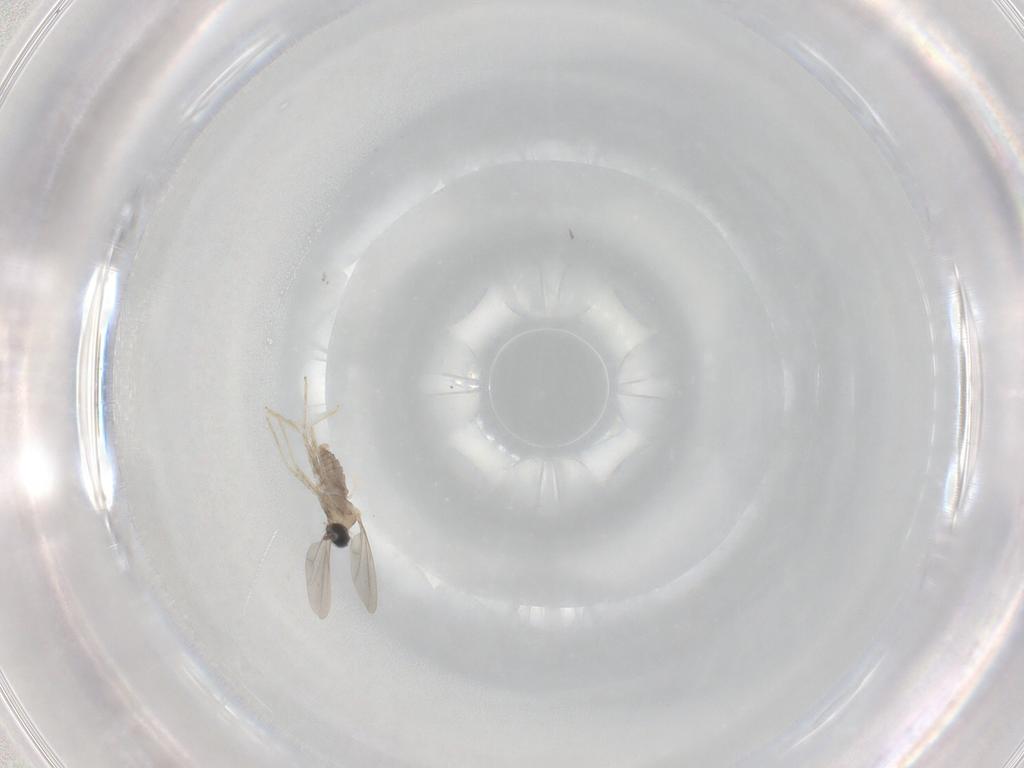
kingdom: Animalia
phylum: Arthropoda
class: Insecta
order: Diptera
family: Cecidomyiidae
